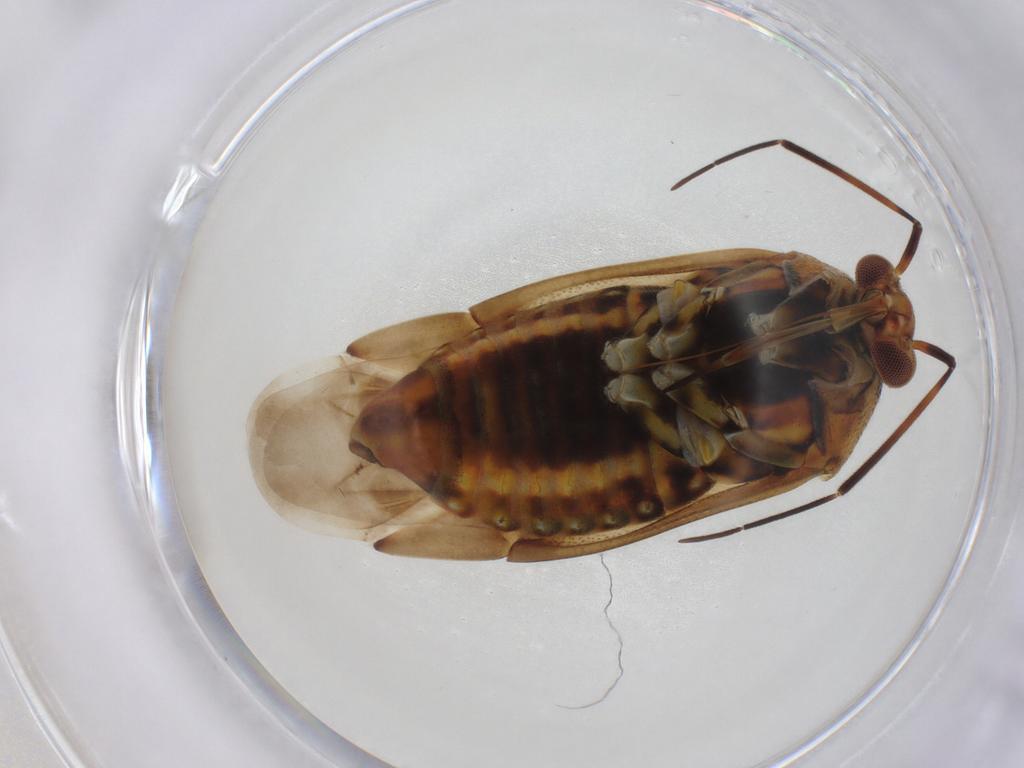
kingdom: Animalia
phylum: Arthropoda
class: Insecta
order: Hemiptera
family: Miridae
